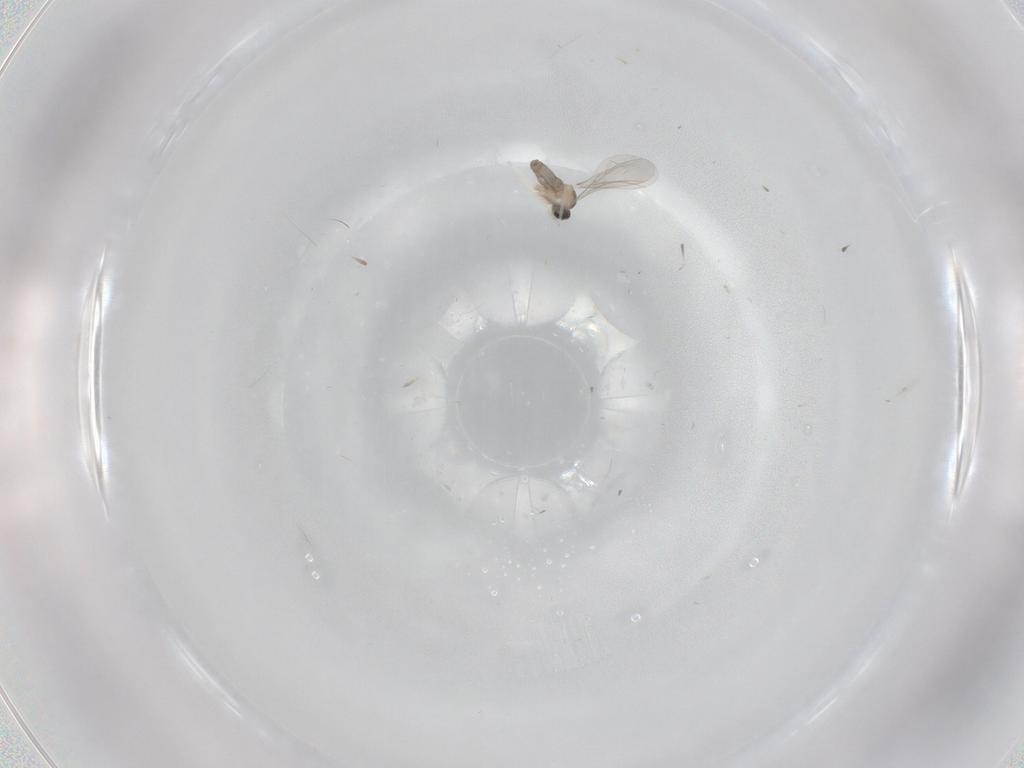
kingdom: Animalia
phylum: Arthropoda
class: Insecta
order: Diptera
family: Cecidomyiidae
